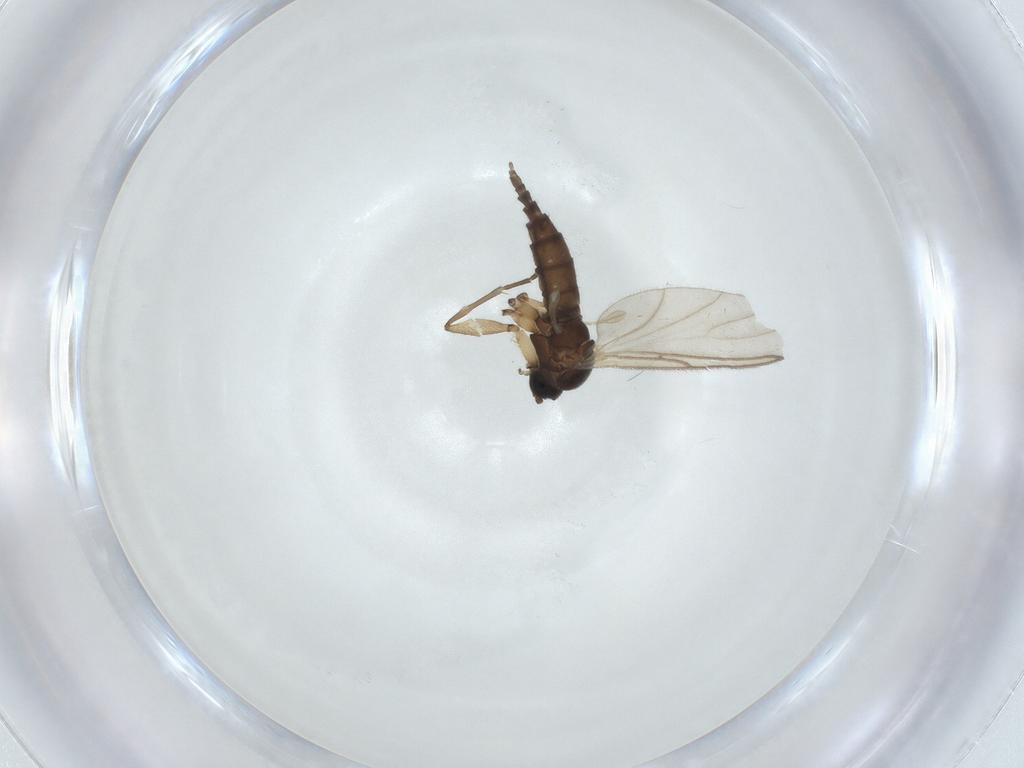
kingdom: Animalia
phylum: Arthropoda
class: Insecta
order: Diptera
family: Sciaridae
